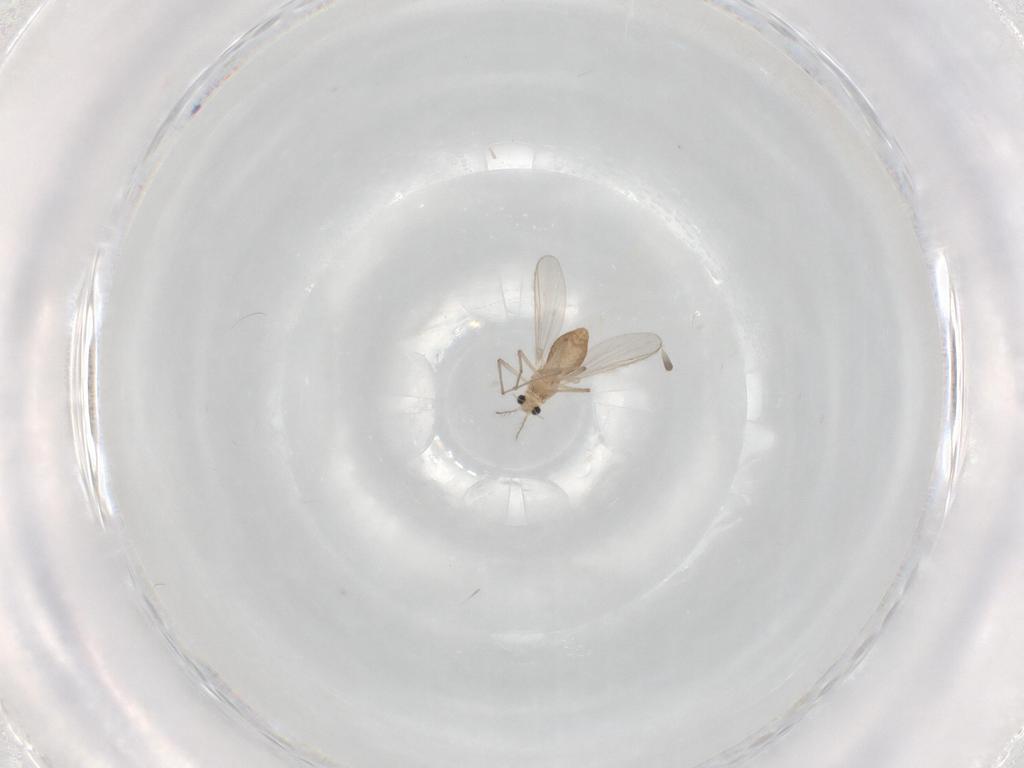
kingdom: Animalia
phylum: Arthropoda
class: Insecta
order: Diptera
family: Chironomidae
